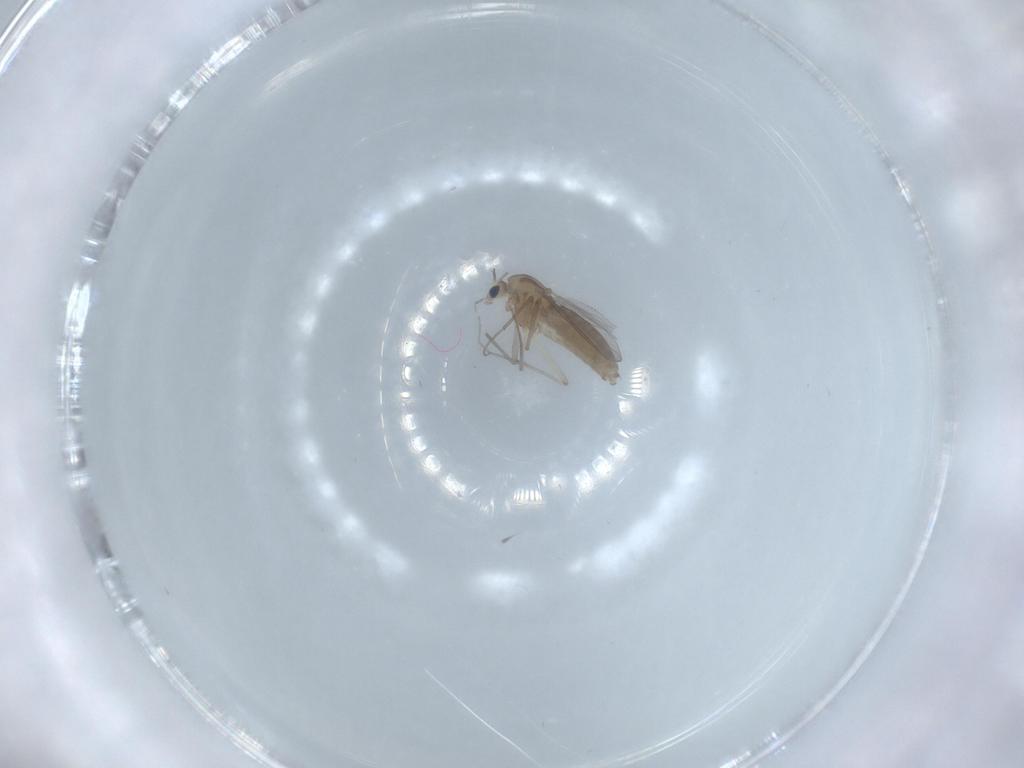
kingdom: Animalia
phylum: Arthropoda
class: Insecta
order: Diptera
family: Chironomidae
